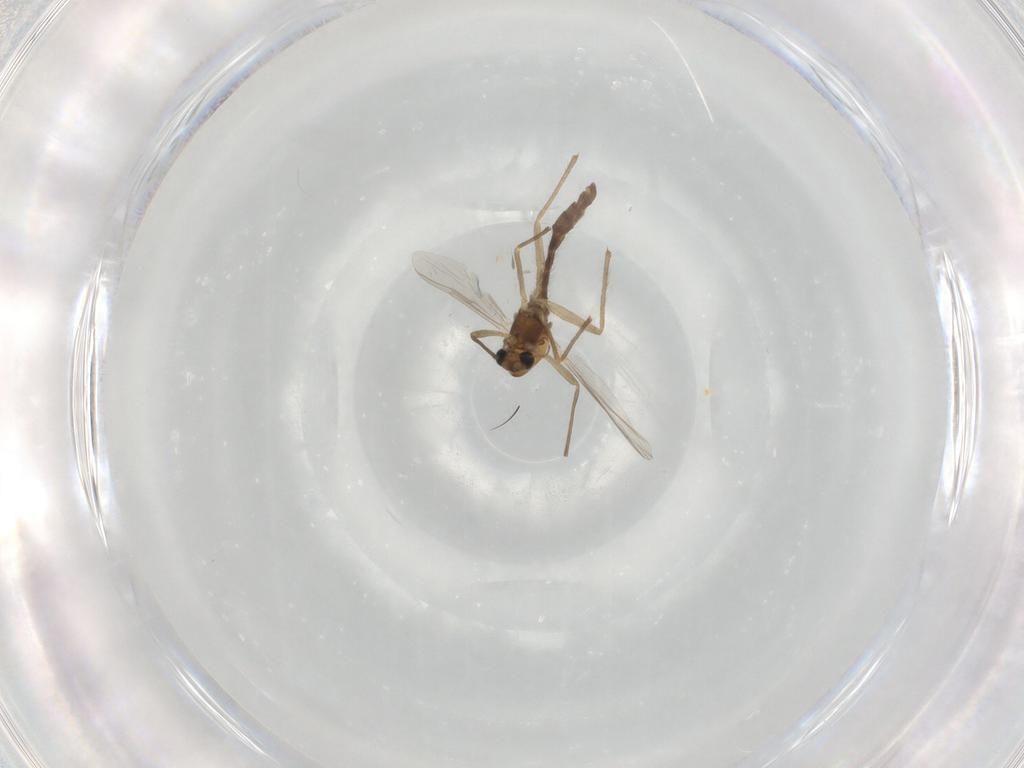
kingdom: Animalia
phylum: Arthropoda
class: Insecta
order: Diptera
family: Chironomidae
